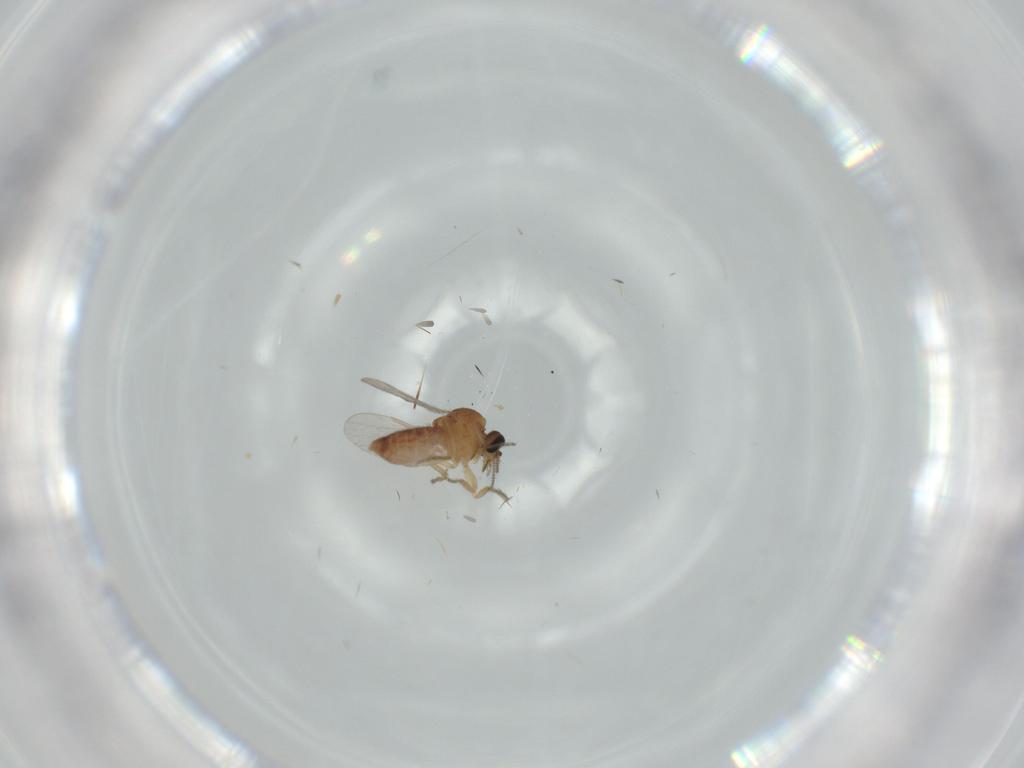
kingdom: Animalia
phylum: Arthropoda
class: Insecta
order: Diptera
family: Ceratopogonidae
